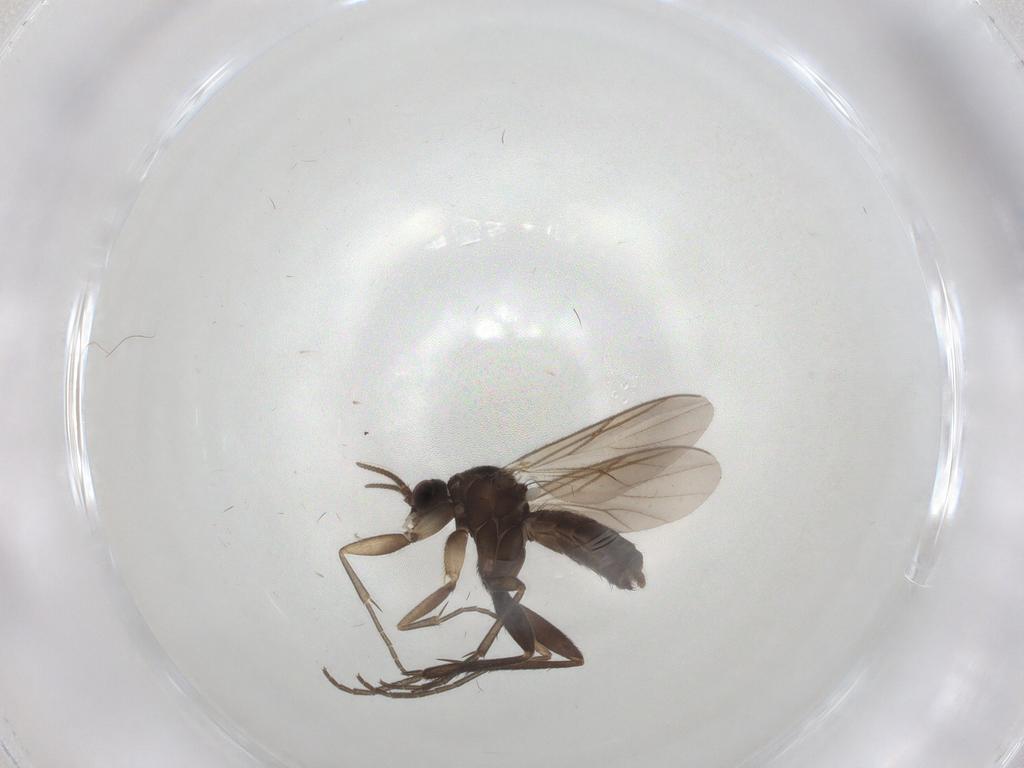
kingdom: Animalia
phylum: Arthropoda
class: Insecta
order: Diptera
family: Mycetophilidae
